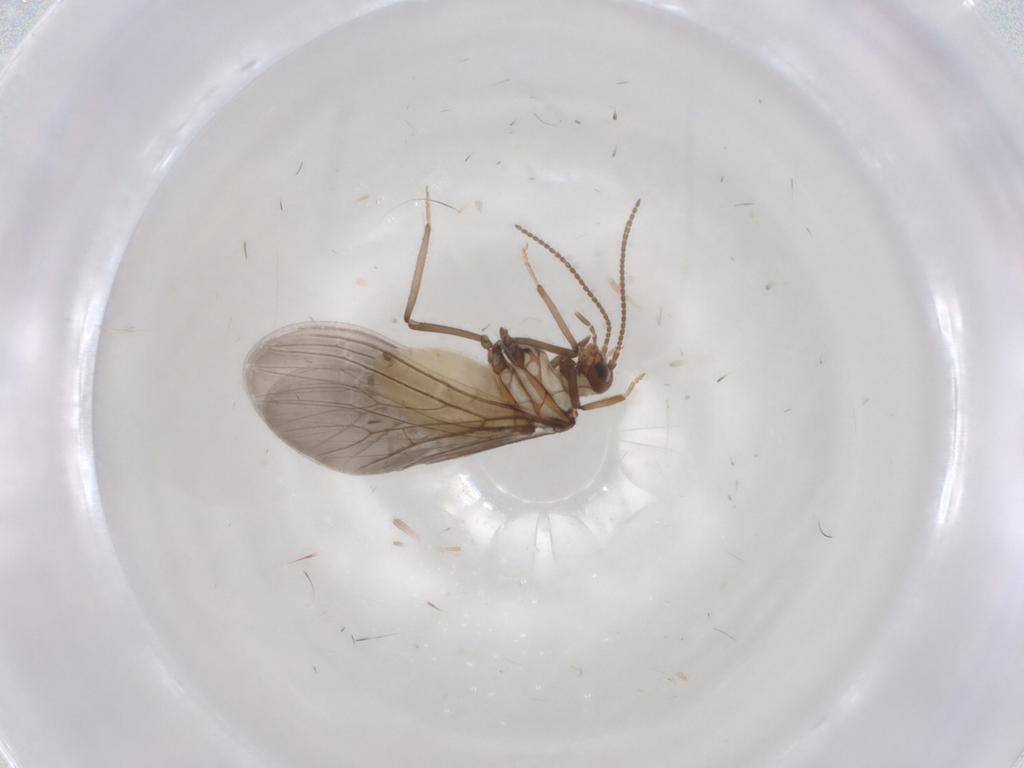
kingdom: Animalia
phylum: Arthropoda
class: Insecta
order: Neuroptera
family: Coniopterygidae
